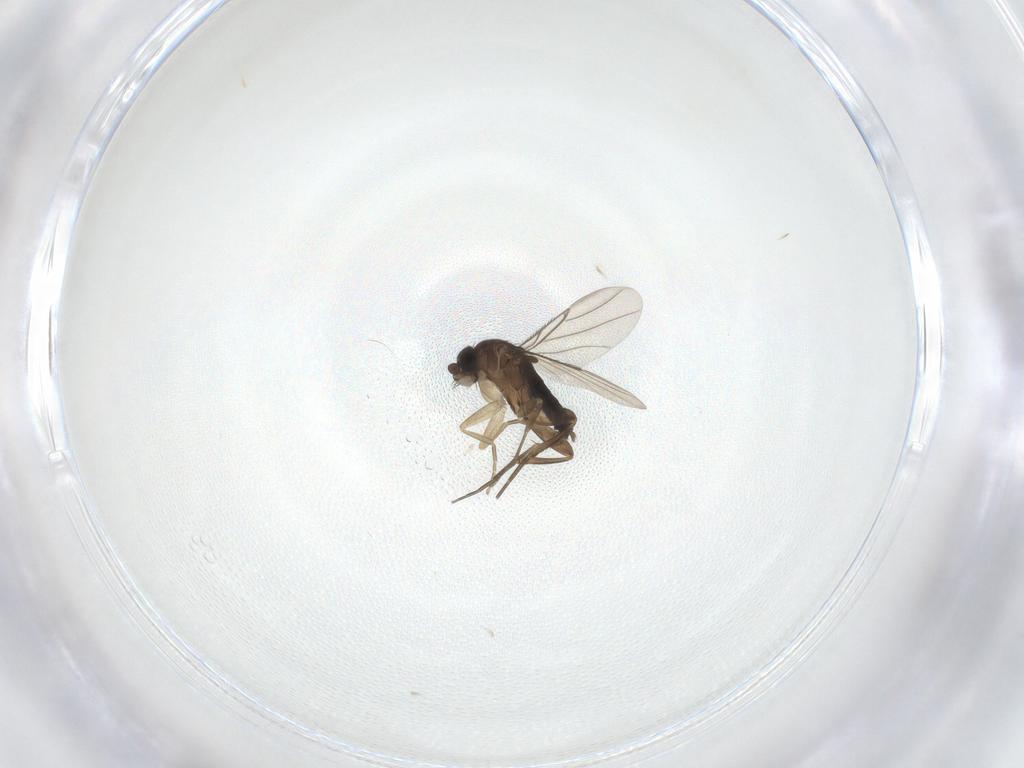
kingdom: Animalia
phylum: Arthropoda
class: Insecta
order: Diptera
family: Phoridae
